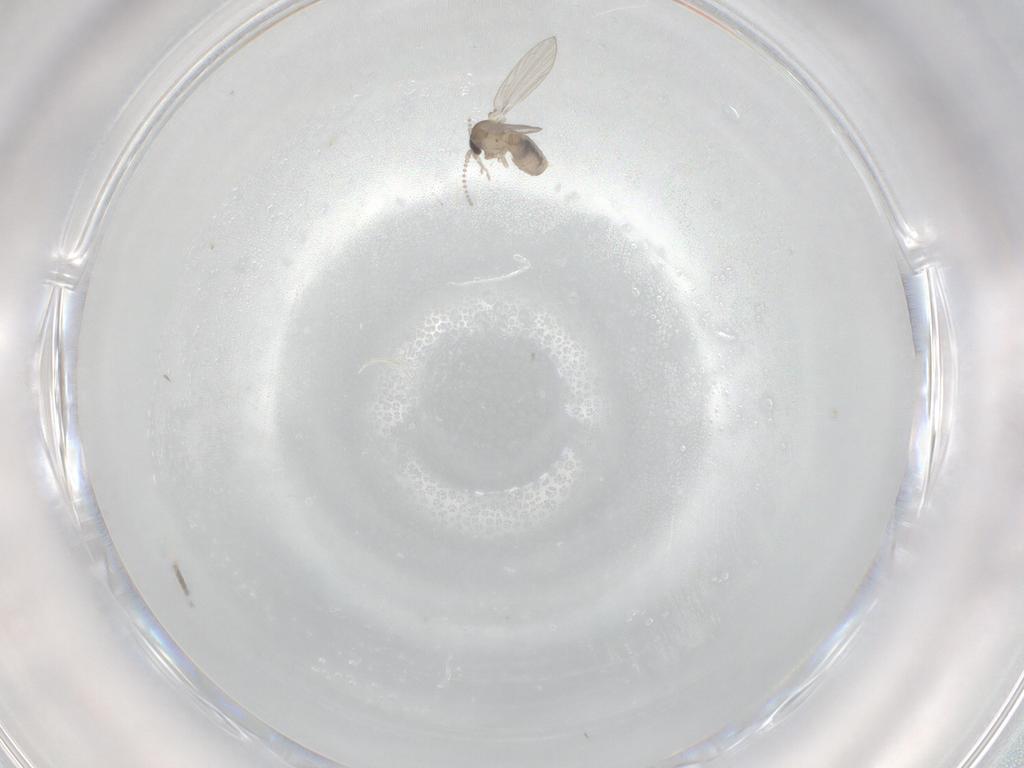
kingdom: Animalia
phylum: Arthropoda
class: Insecta
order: Diptera
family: Psychodidae
